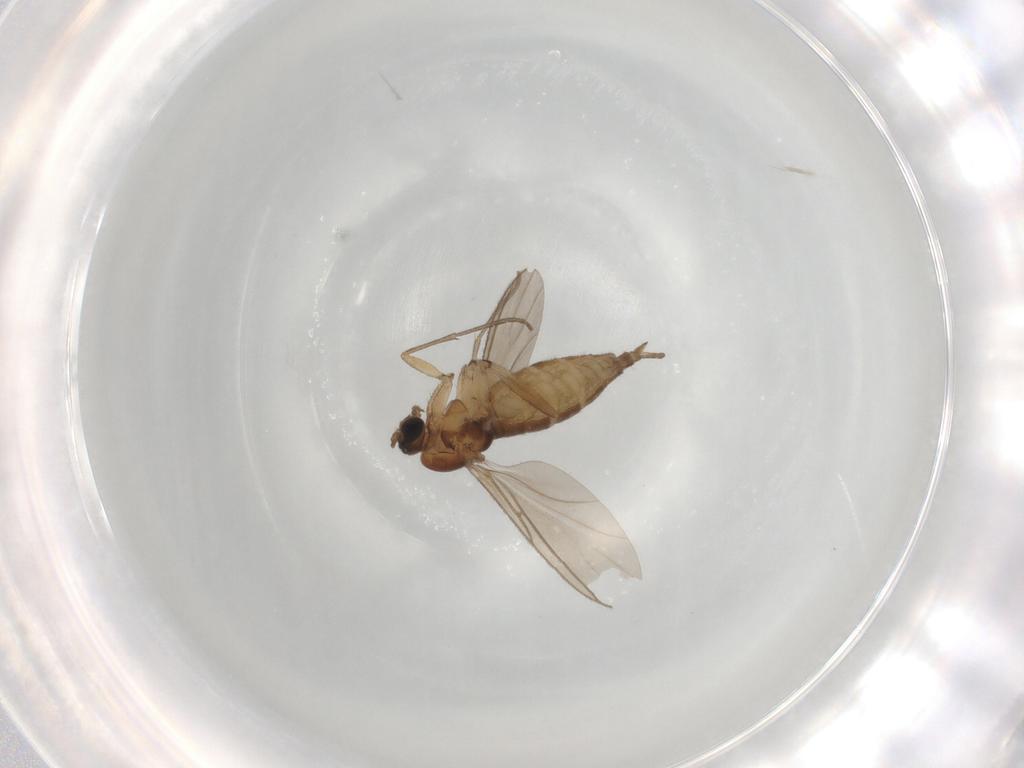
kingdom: Animalia
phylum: Arthropoda
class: Insecta
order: Diptera
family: Sciaridae
